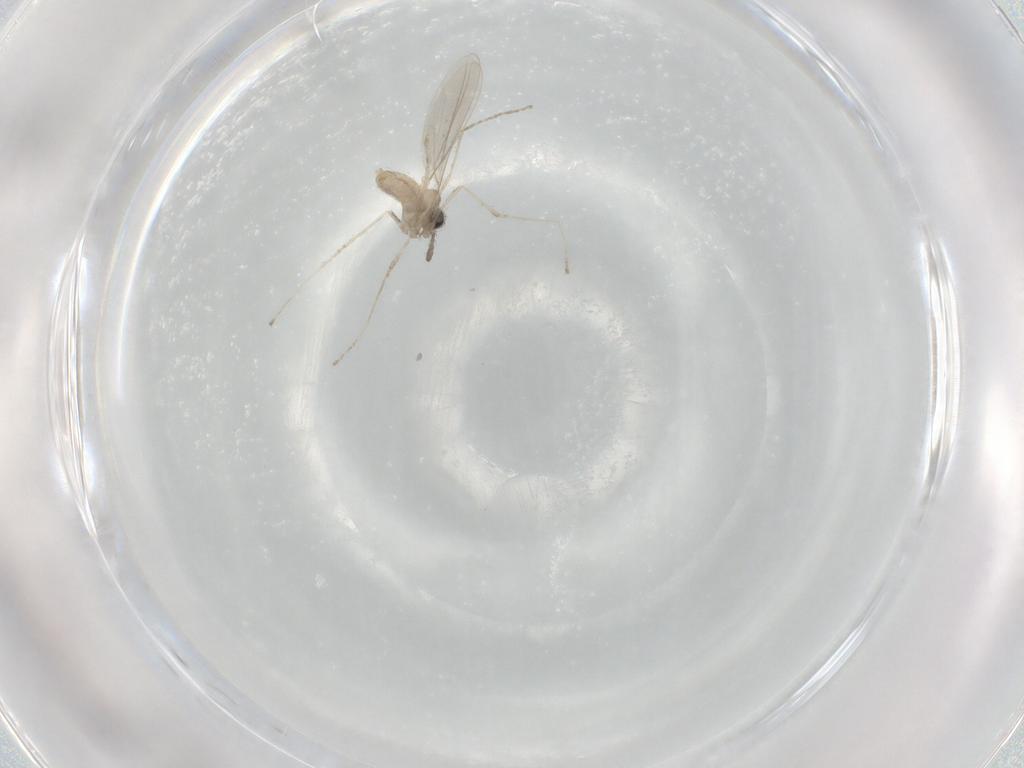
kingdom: Animalia
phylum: Arthropoda
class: Insecta
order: Diptera
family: Cecidomyiidae
